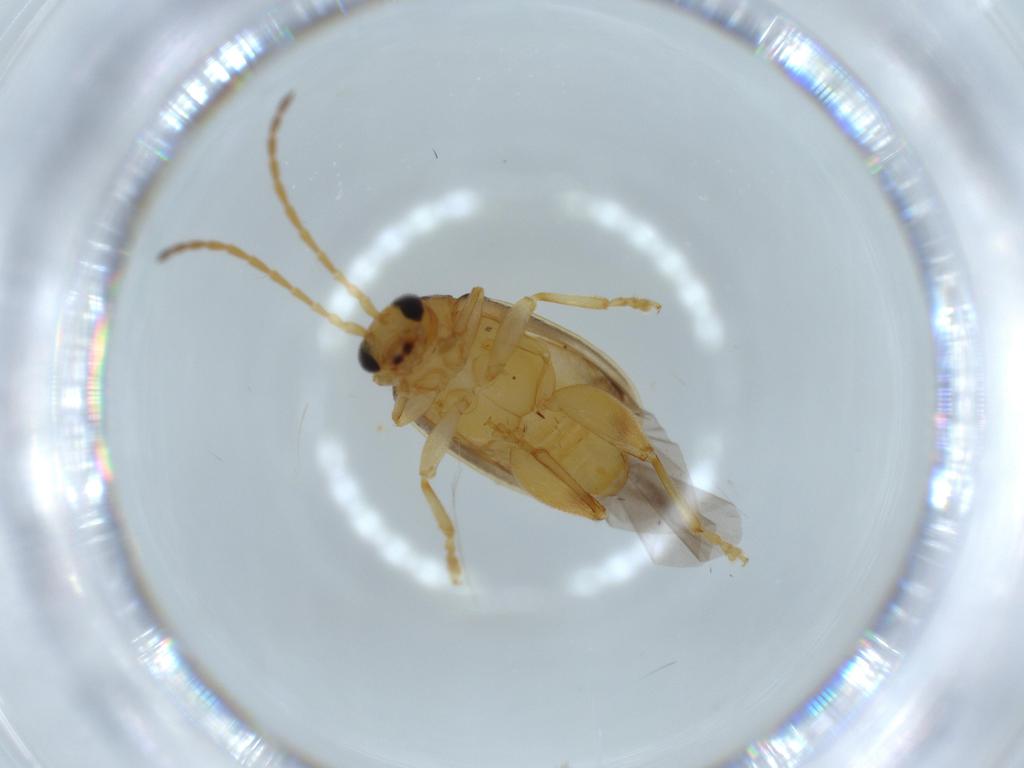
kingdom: Animalia
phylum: Arthropoda
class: Insecta
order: Coleoptera
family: Chrysomelidae
